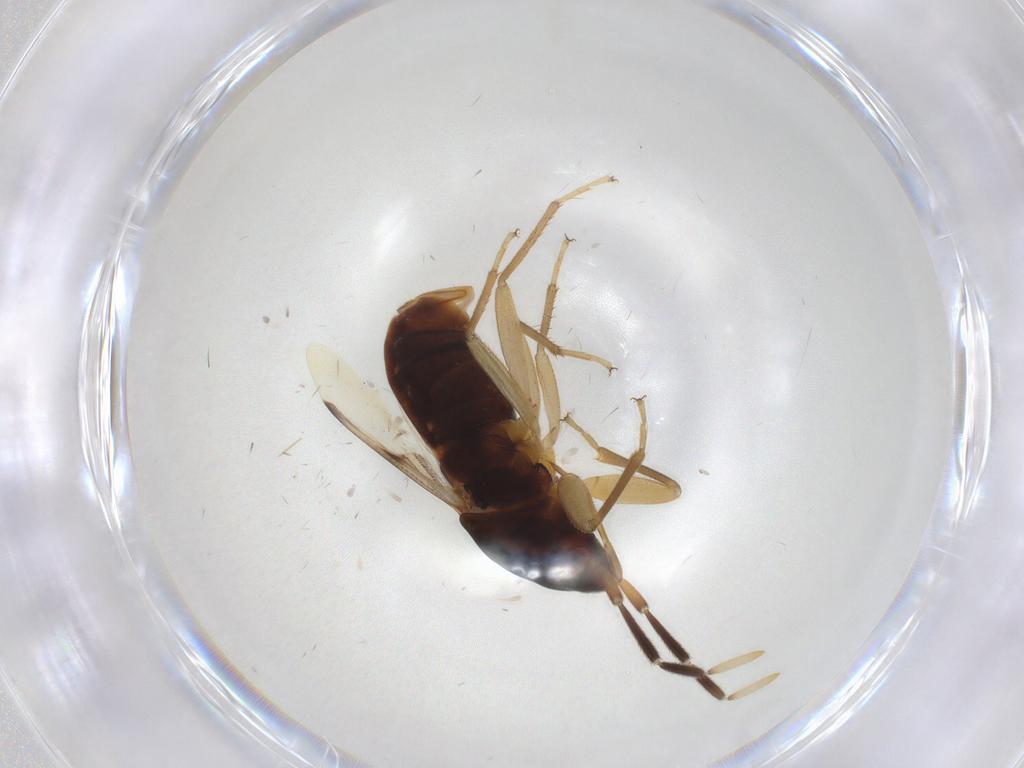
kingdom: Animalia
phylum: Arthropoda
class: Insecta
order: Hemiptera
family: Rhyparochromidae
